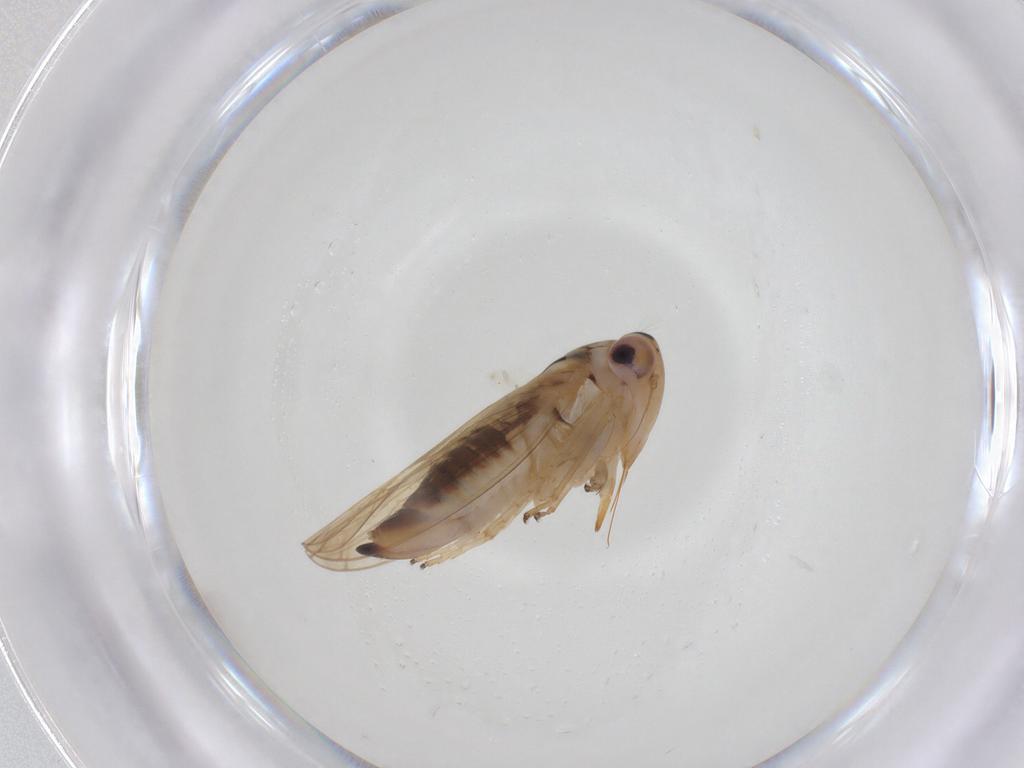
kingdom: Animalia
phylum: Arthropoda
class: Insecta
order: Hemiptera
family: Cicadellidae
